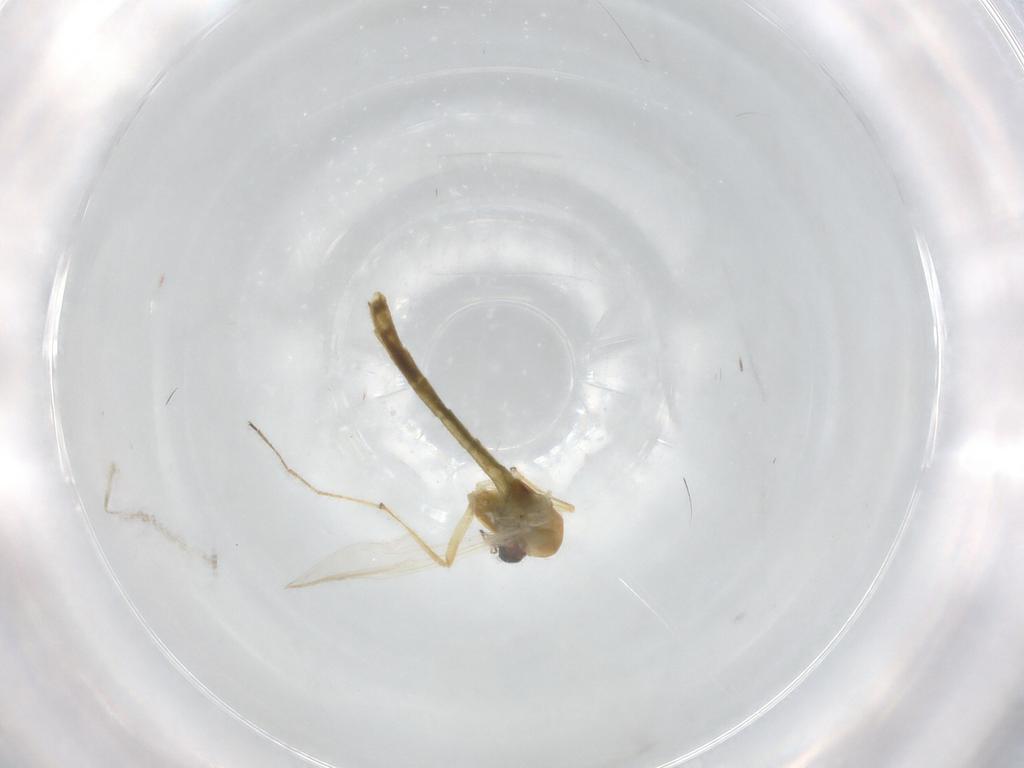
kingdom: Animalia
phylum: Arthropoda
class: Insecta
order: Diptera
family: Chironomidae
